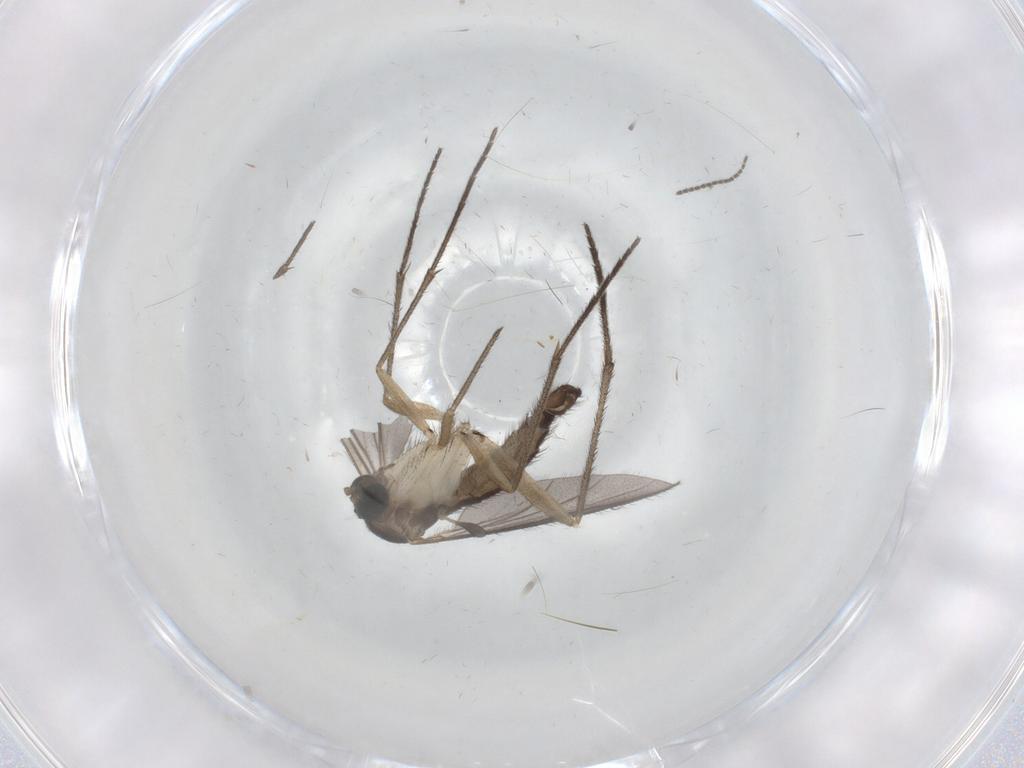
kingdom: Animalia
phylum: Arthropoda
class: Insecta
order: Diptera
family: Sciaridae
